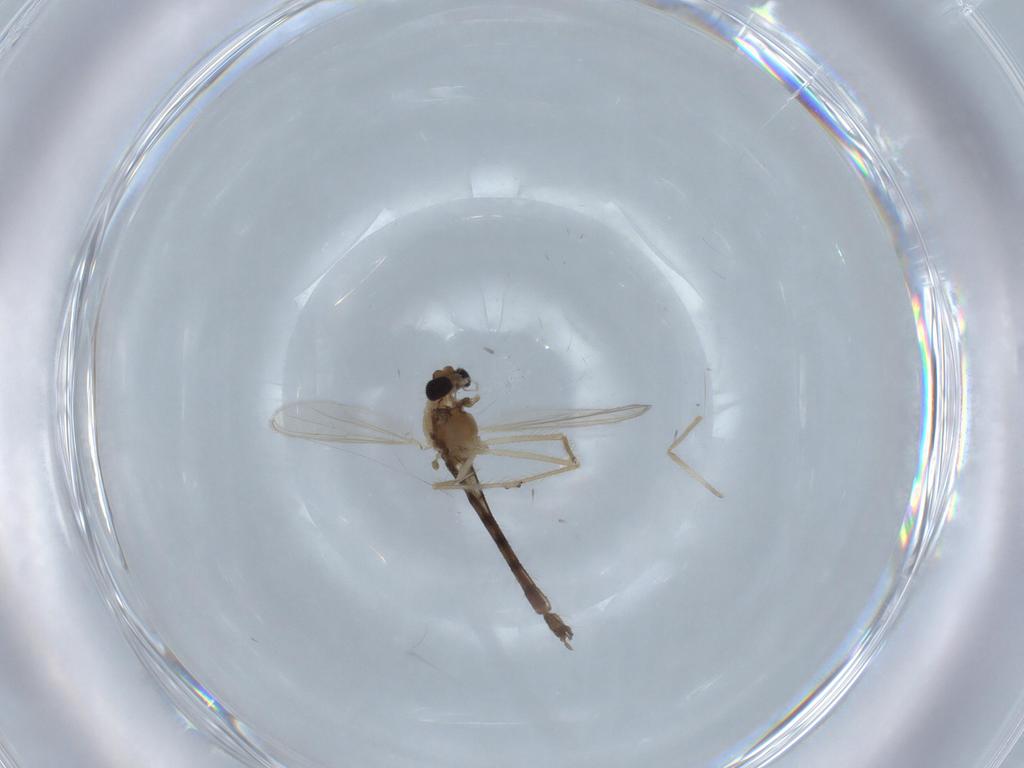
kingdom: Animalia
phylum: Arthropoda
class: Insecta
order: Diptera
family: Chironomidae
